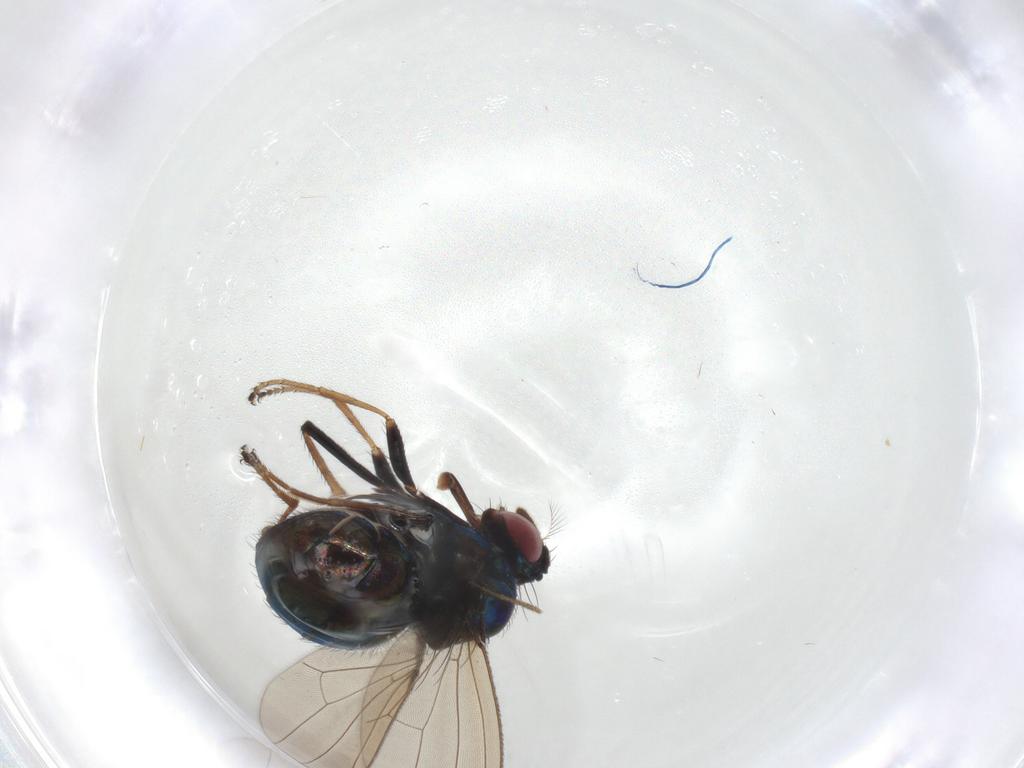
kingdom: Animalia
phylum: Arthropoda
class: Insecta
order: Diptera
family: Ephydridae
